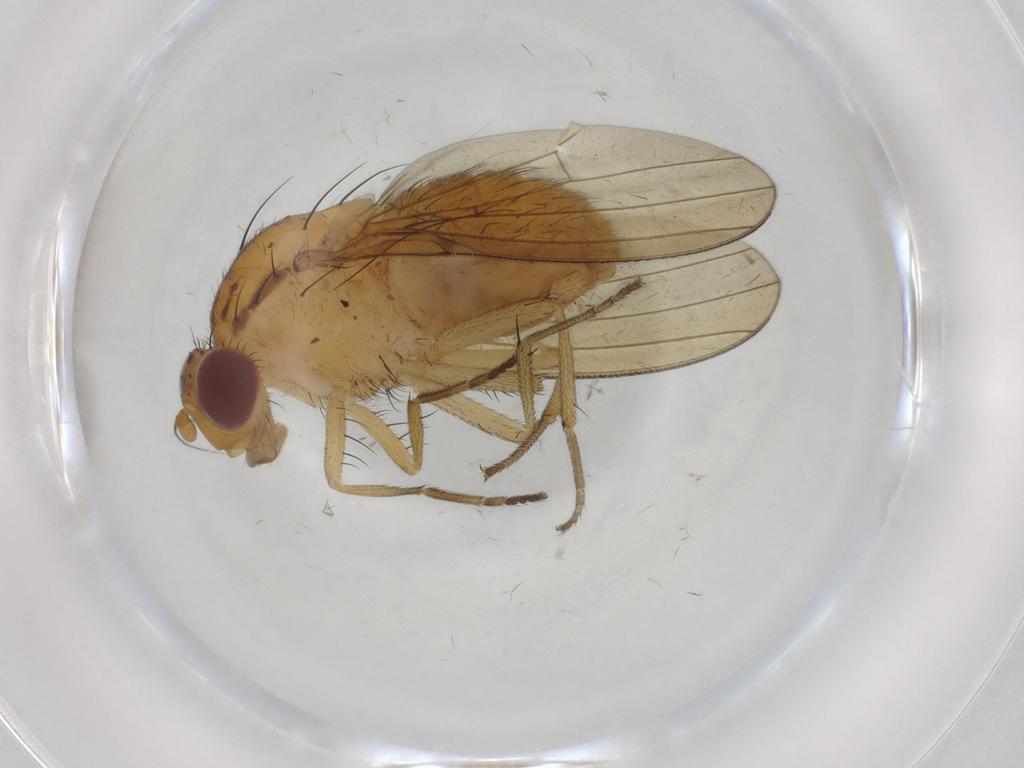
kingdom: Animalia
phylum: Arthropoda
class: Insecta
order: Diptera
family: Lauxaniidae
